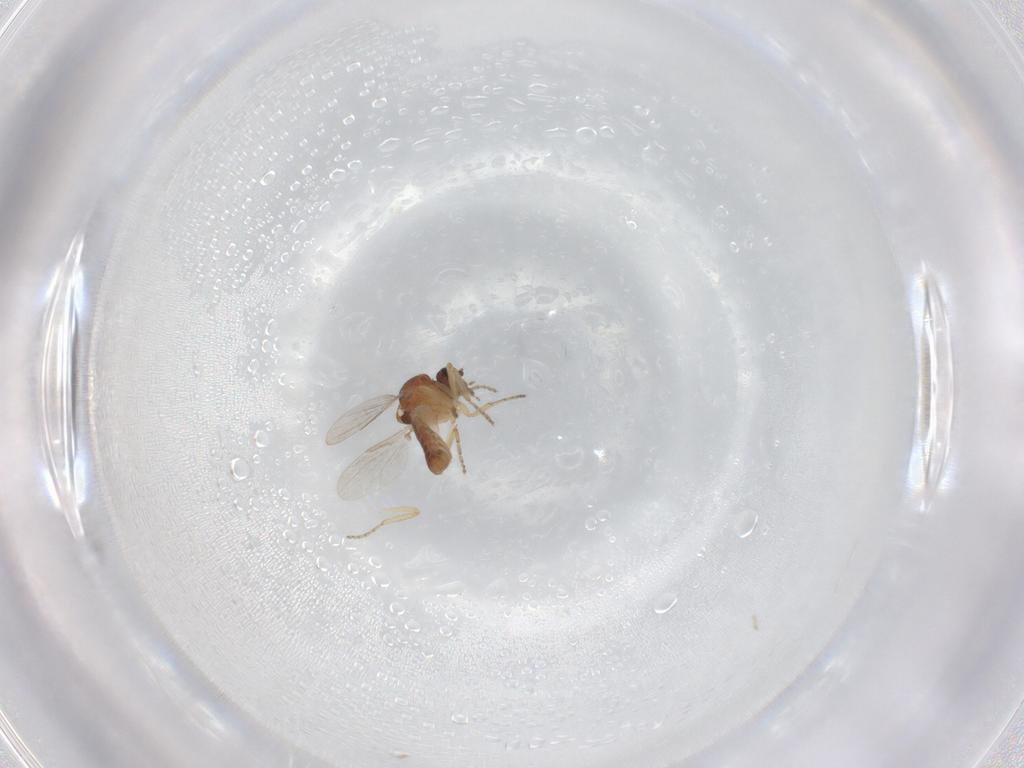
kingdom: Animalia
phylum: Arthropoda
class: Insecta
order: Diptera
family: Ceratopogonidae
